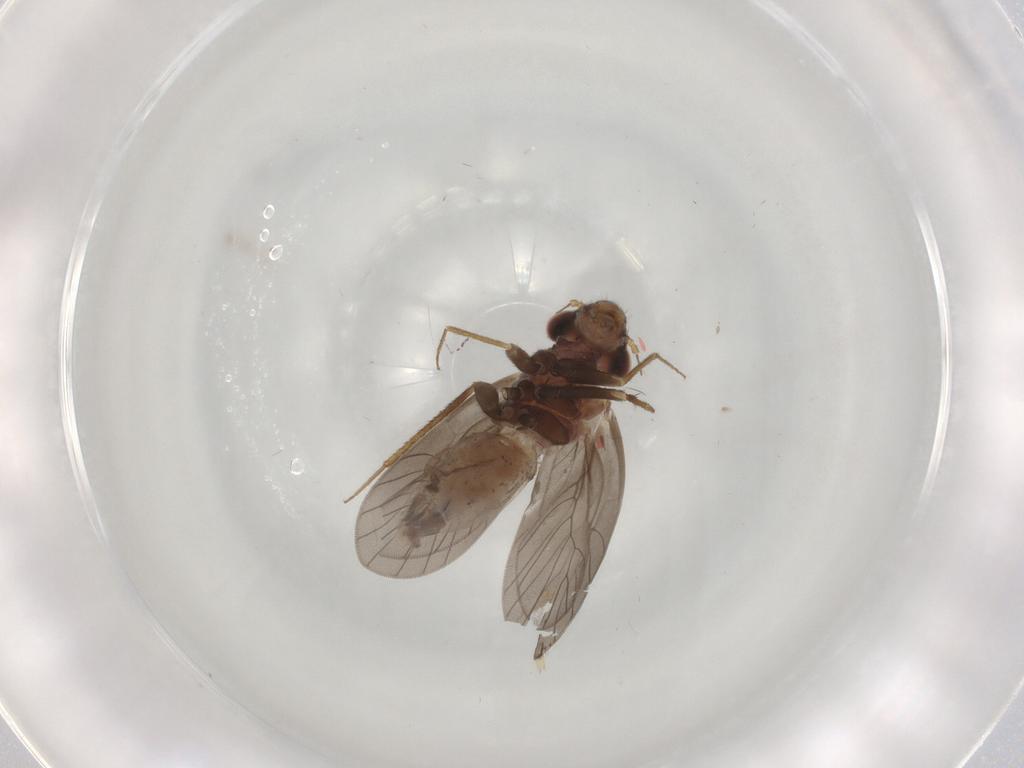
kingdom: Animalia
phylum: Arthropoda
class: Insecta
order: Psocodea
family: Lepidopsocidae
